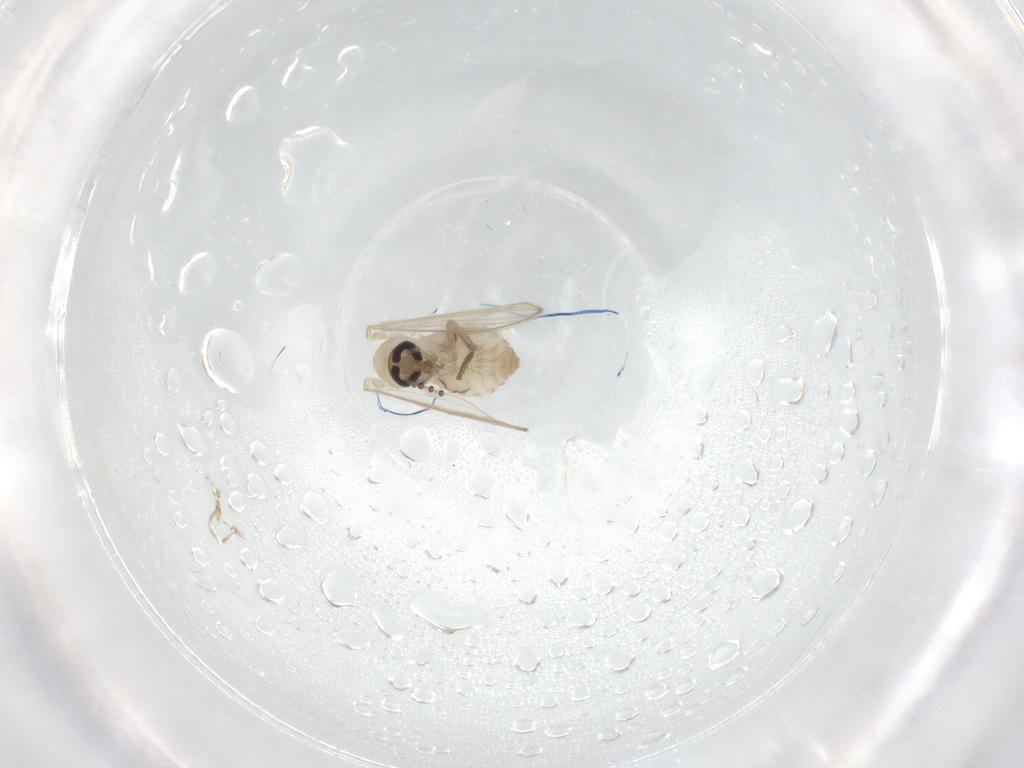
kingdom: Animalia
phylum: Arthropoda
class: Insecta
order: Diptera
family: Psychodidae
